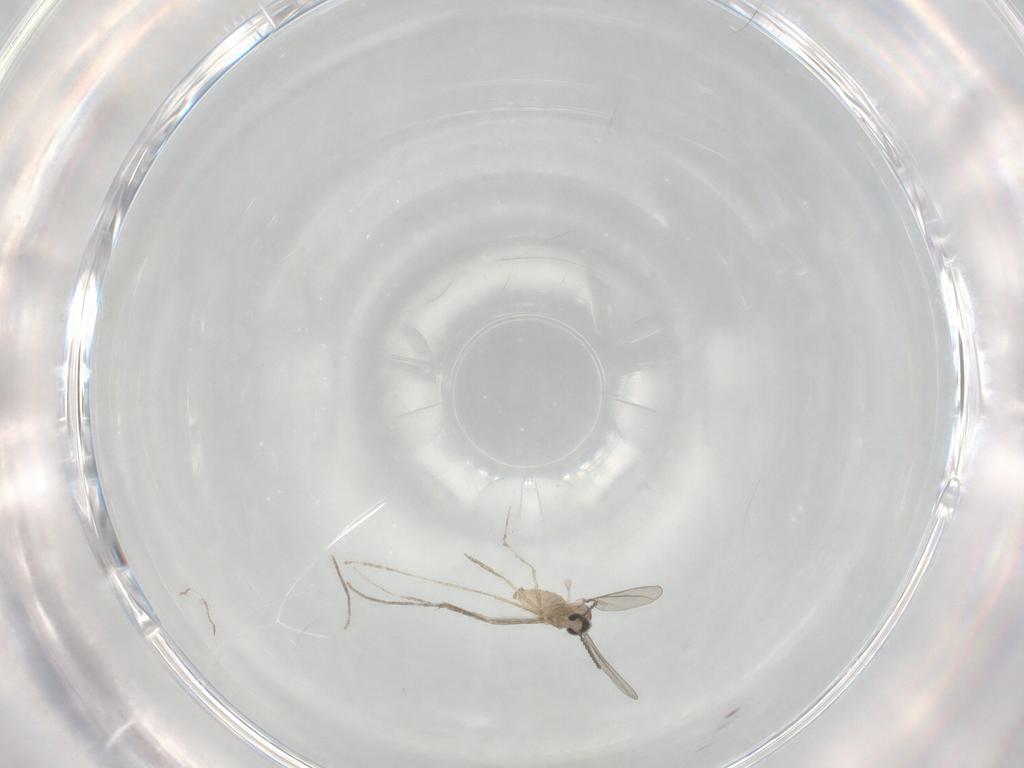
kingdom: Animalia
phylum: Arthropoda
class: Insecta
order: Diptera
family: Cecidomyiidae
